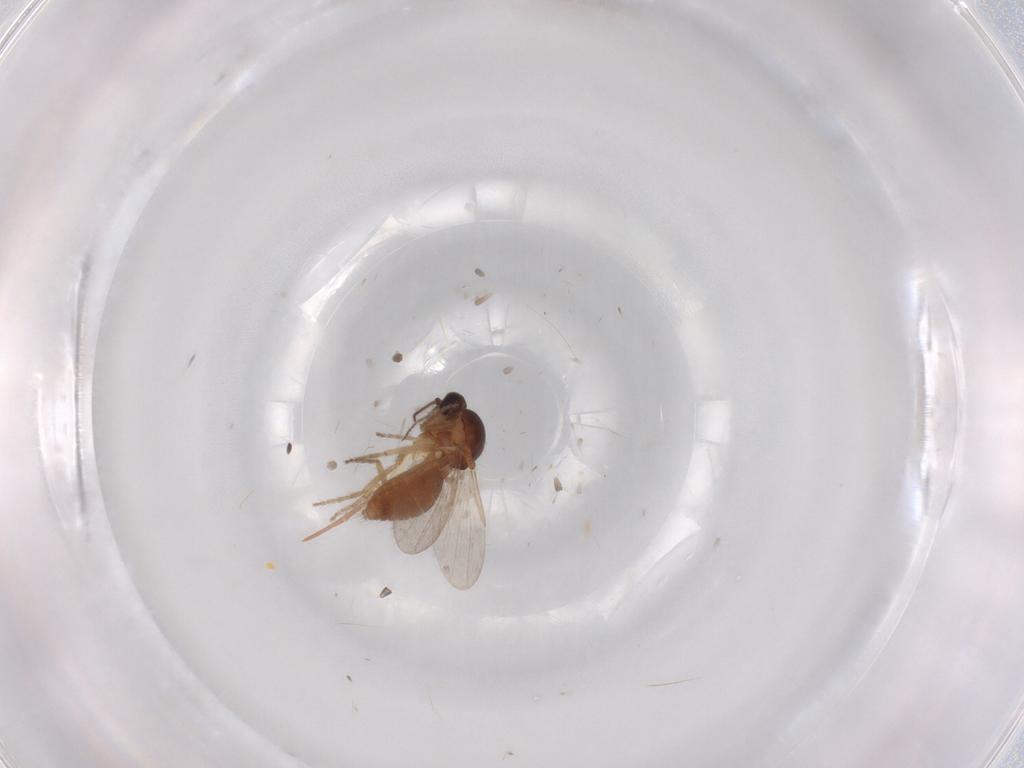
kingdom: Animalia
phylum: Arthropoda
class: Insecta
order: Diptera
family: Ceratopogonidae
